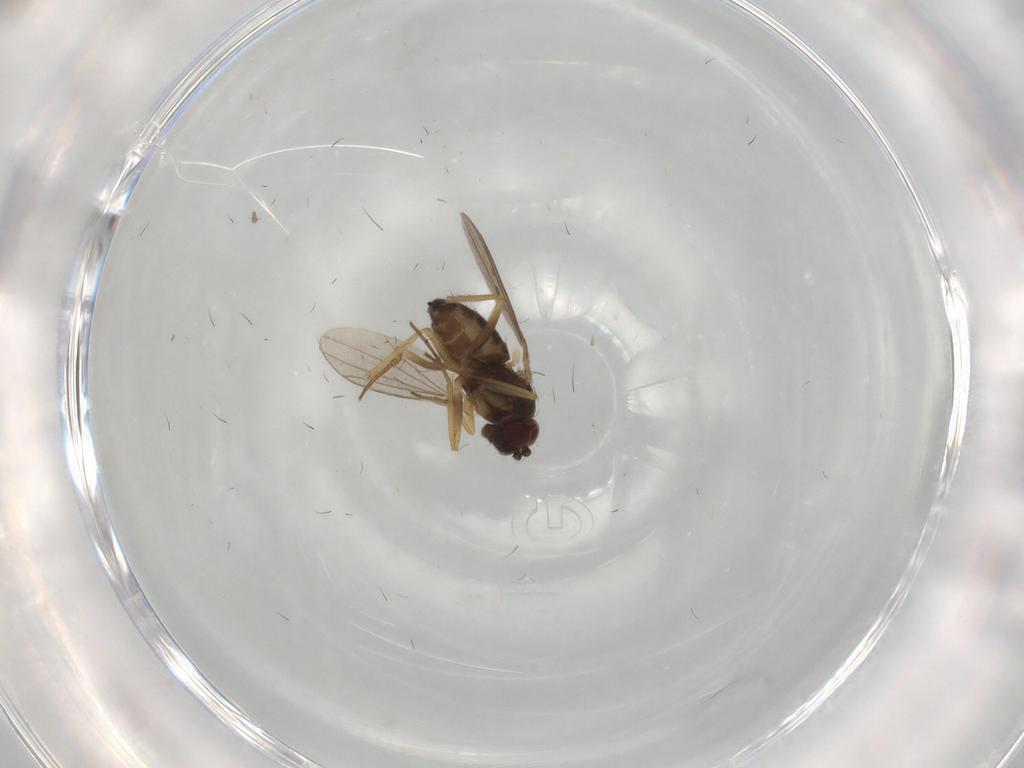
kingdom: Animalia
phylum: Arthropoda
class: Insecta
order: Diptera
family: Dolichopodidae
